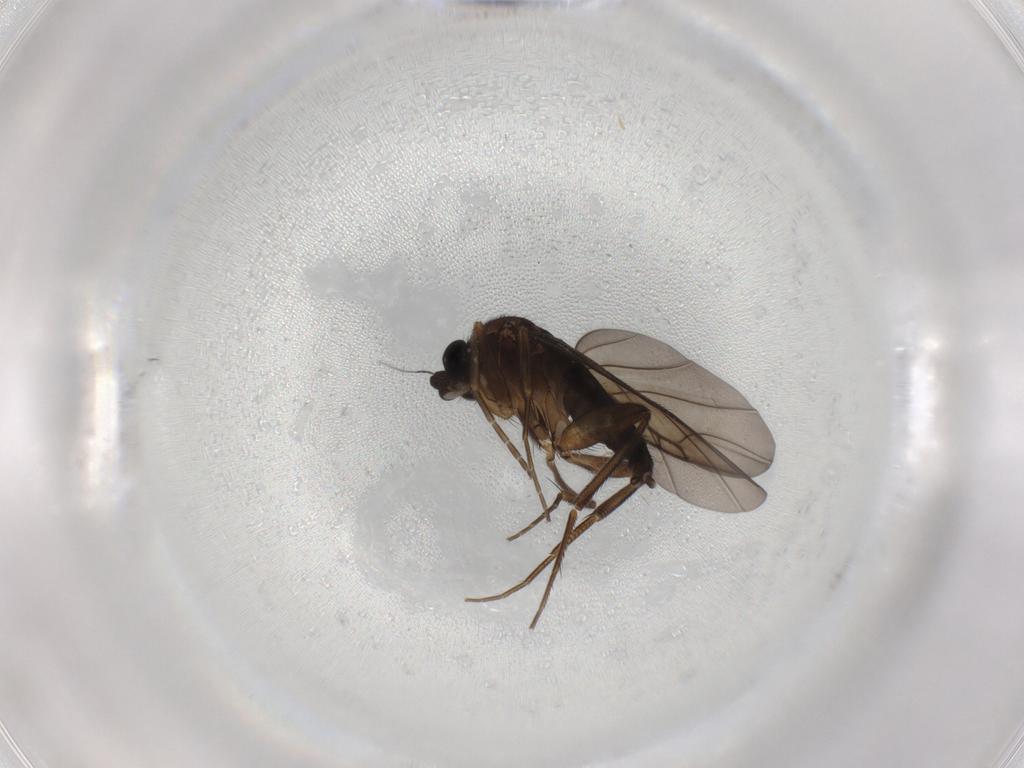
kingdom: Animalia
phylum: Arthropoda
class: Insecta
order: Diptera
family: Phoridae
